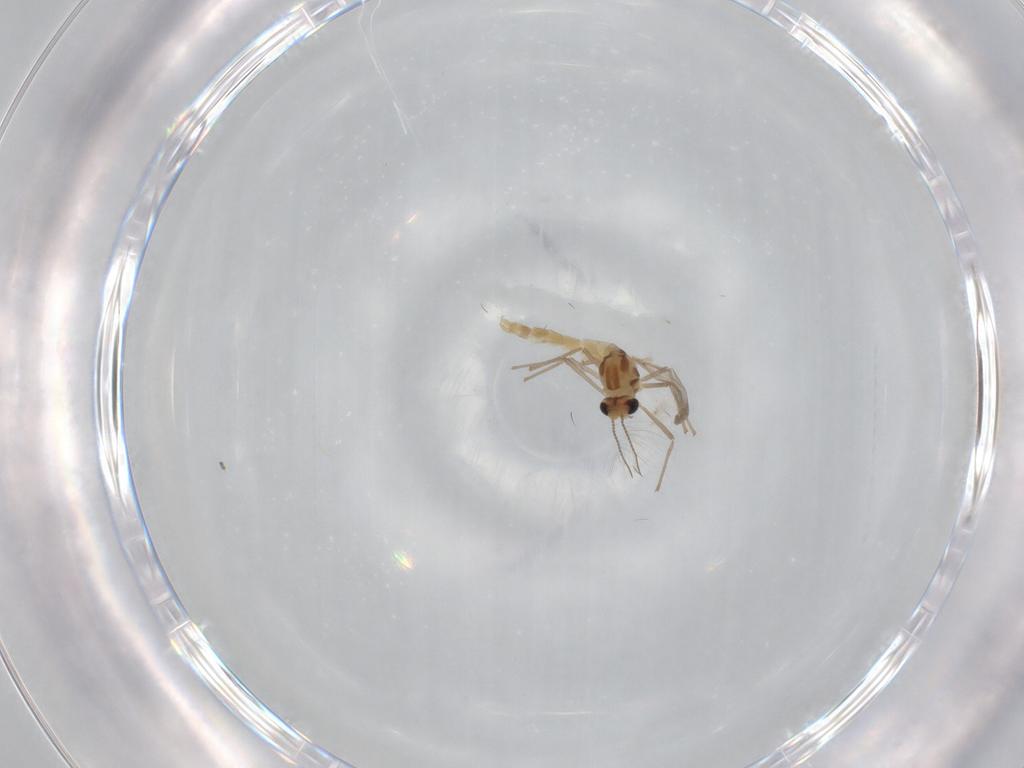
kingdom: Animalia
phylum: Arthropoda
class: Insecta
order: Diptera
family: Chironomidae
